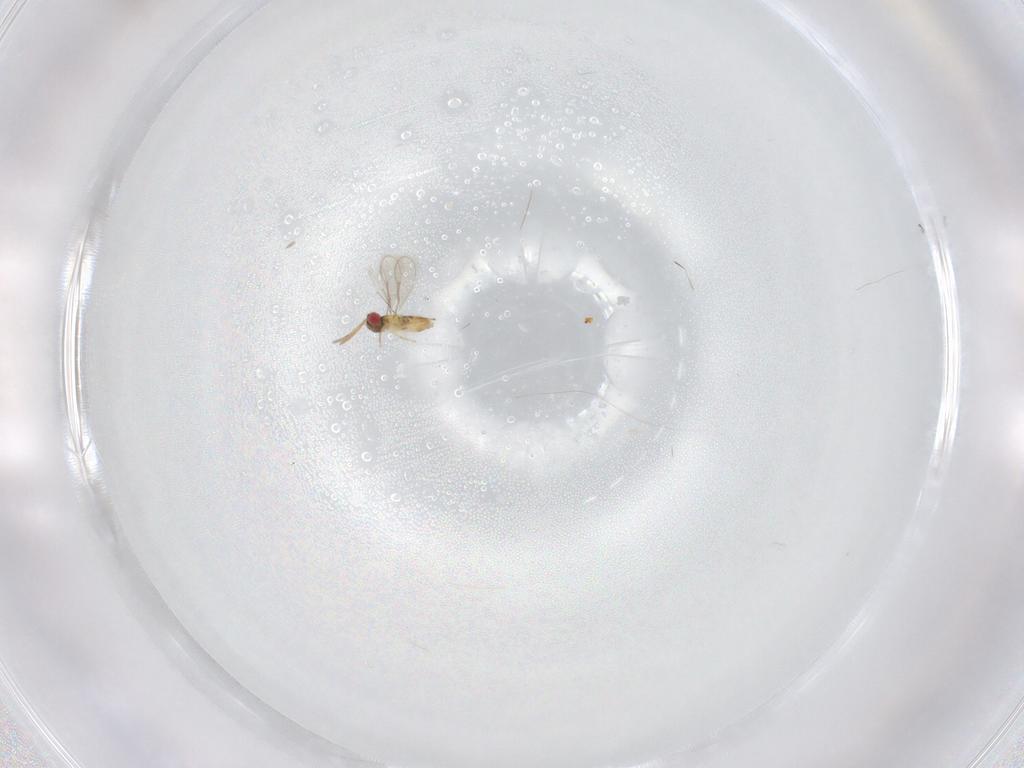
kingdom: Animalia
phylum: Arthropoda
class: Insecta
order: Hymenoptera
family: Aphelinidae
